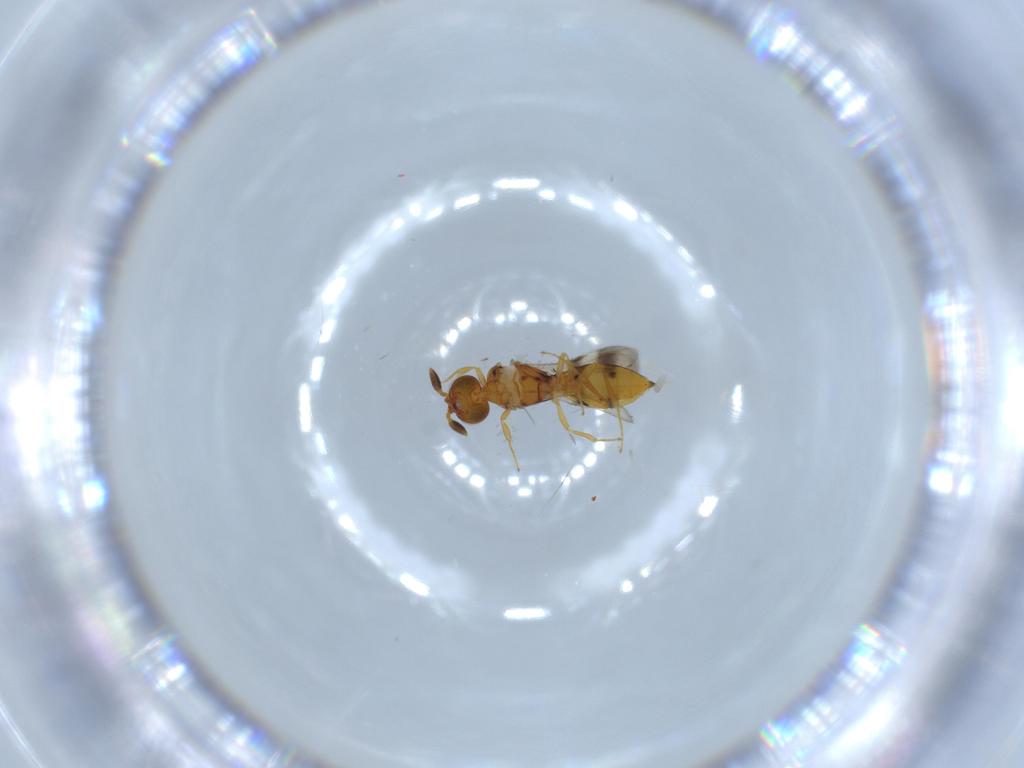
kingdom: Animalia
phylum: Arthropoda
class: Insecta
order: Hymenoptera
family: Scelionidae
